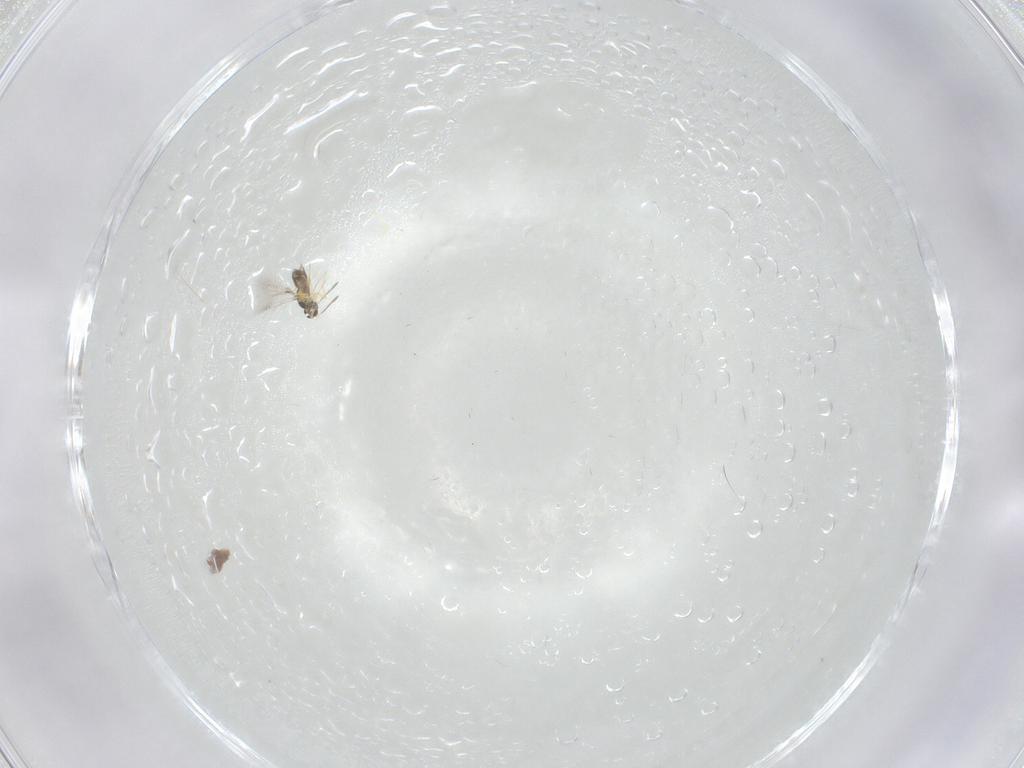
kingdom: Animalia
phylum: Arthropoda
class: Insecta
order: Hymenoptera
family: Mymaridae
